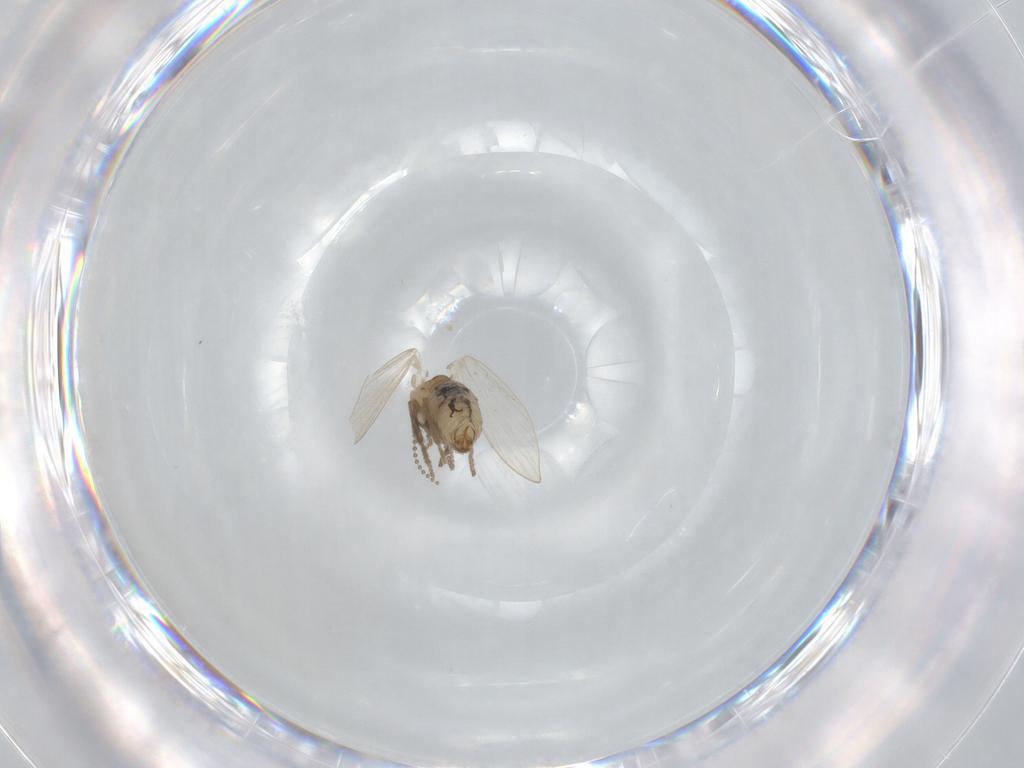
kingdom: Animalia
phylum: Arthropoda
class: Insecta
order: Diptera
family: Psychodidae
